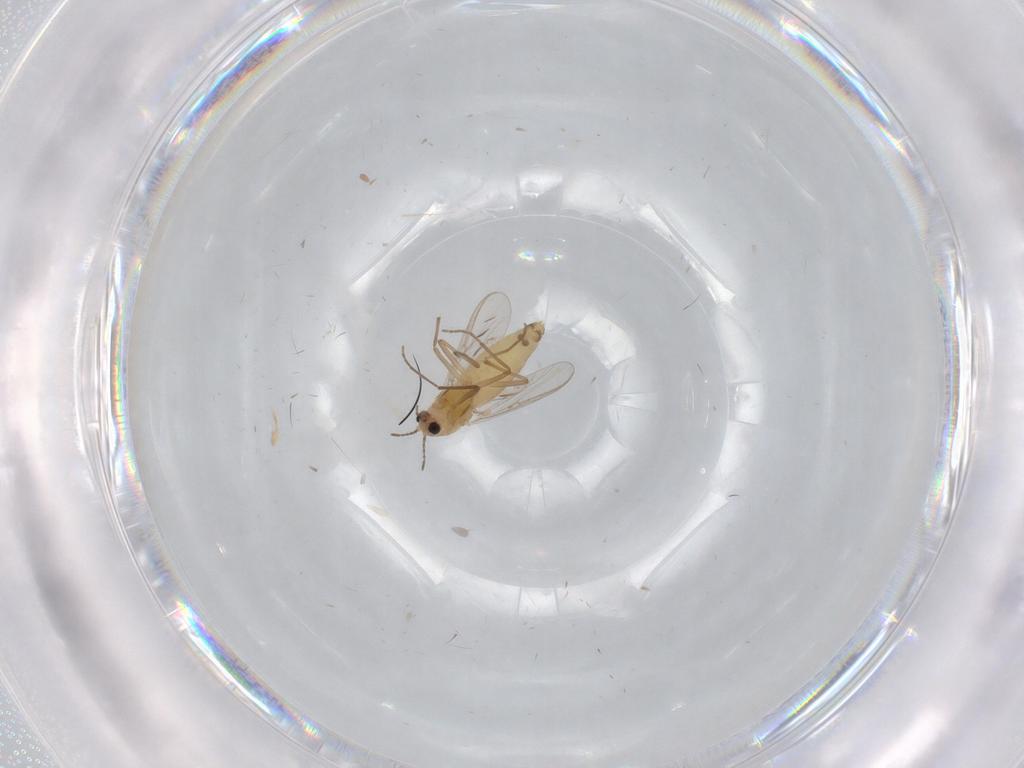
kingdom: Animalia
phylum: Arthropoda
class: Insecta
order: Diptera
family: Chironomidae
